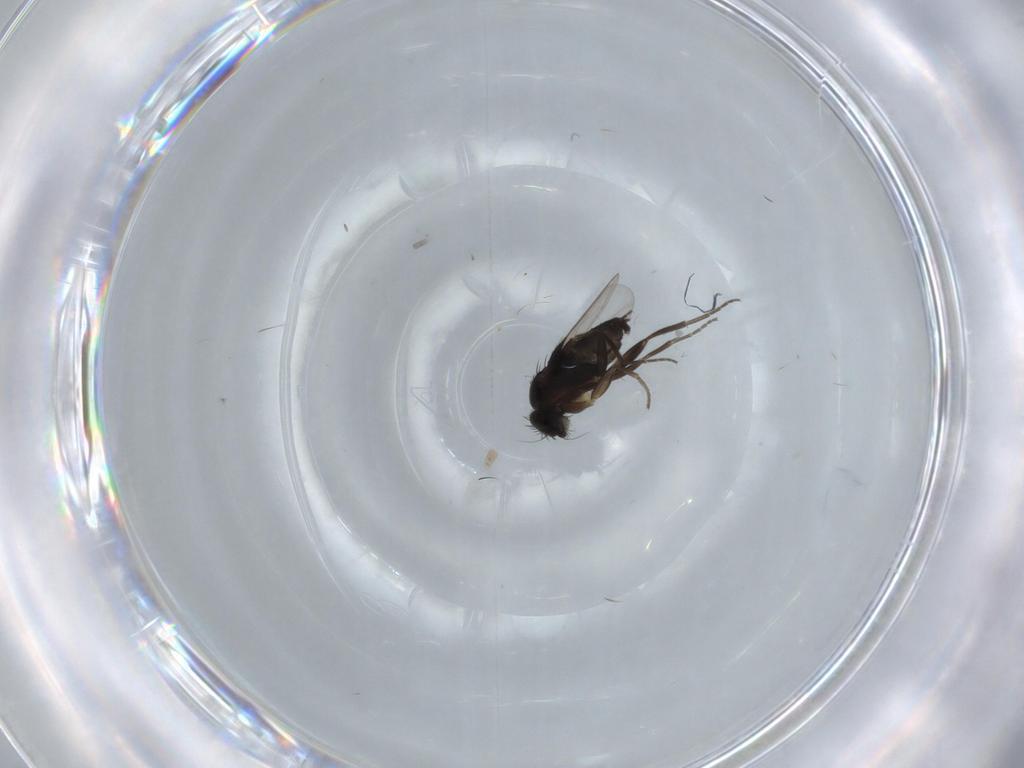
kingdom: Animalia
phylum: Arthropoda
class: Insecta
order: Diptera
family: Phoridae
